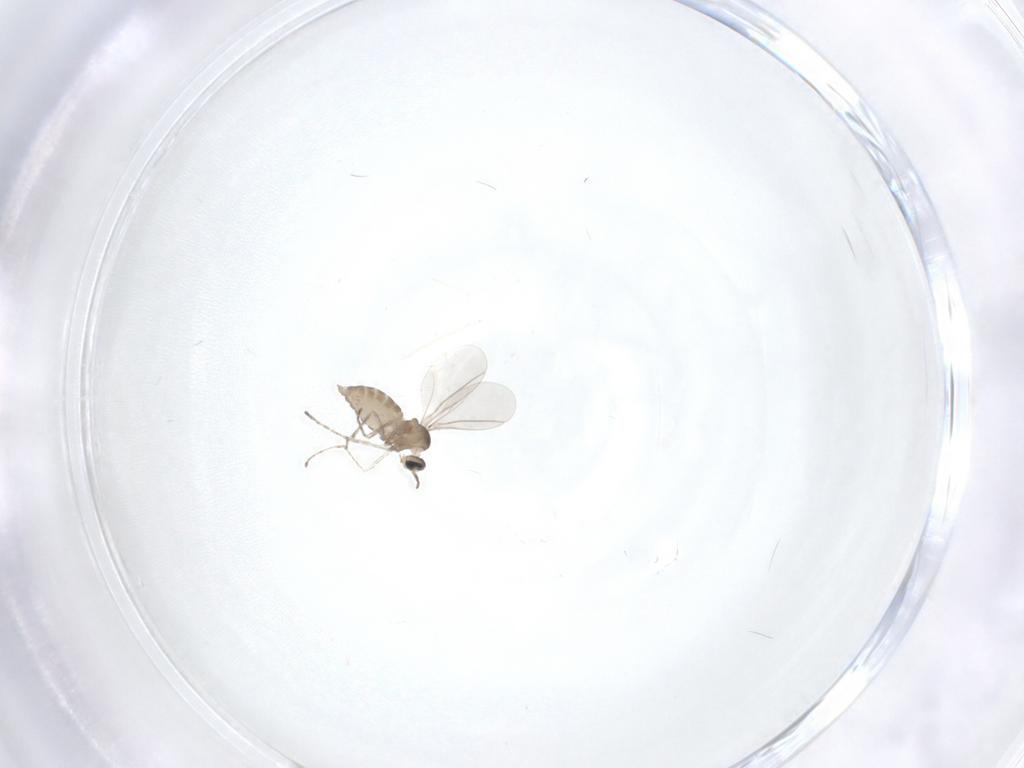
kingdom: Animalia
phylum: Arthropoda
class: Insecta
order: Diptera
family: Cecidomyiidae
